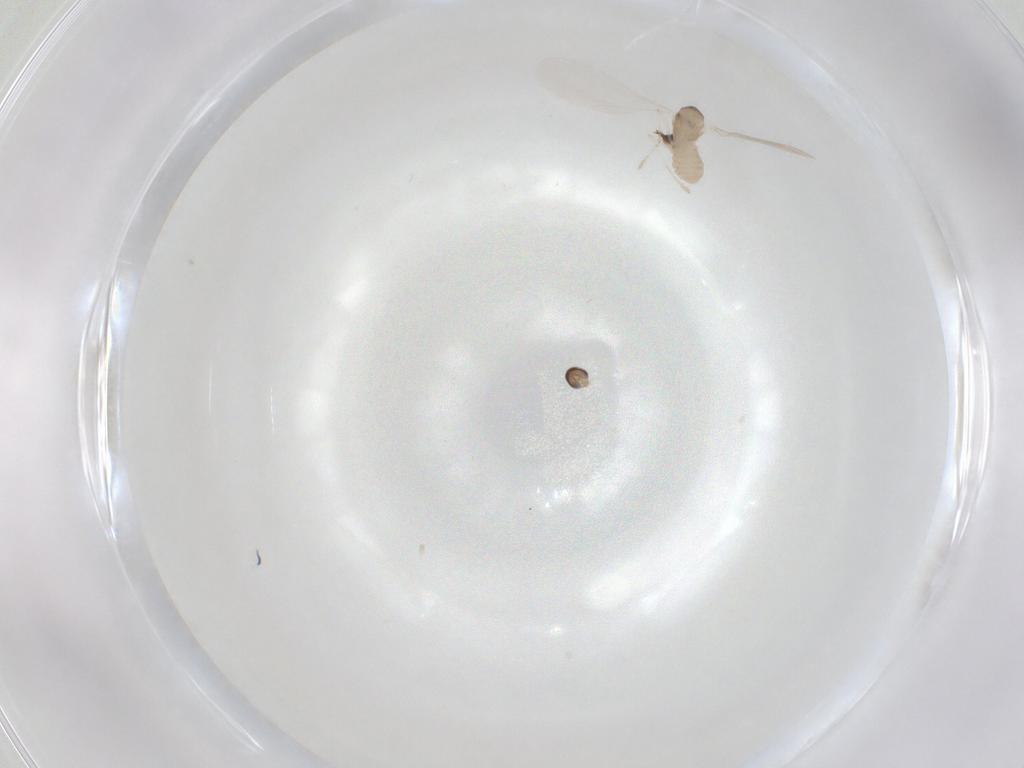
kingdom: Animalia
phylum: Arthropoda
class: Insecta
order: Diptera
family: Cecidomyiidae
